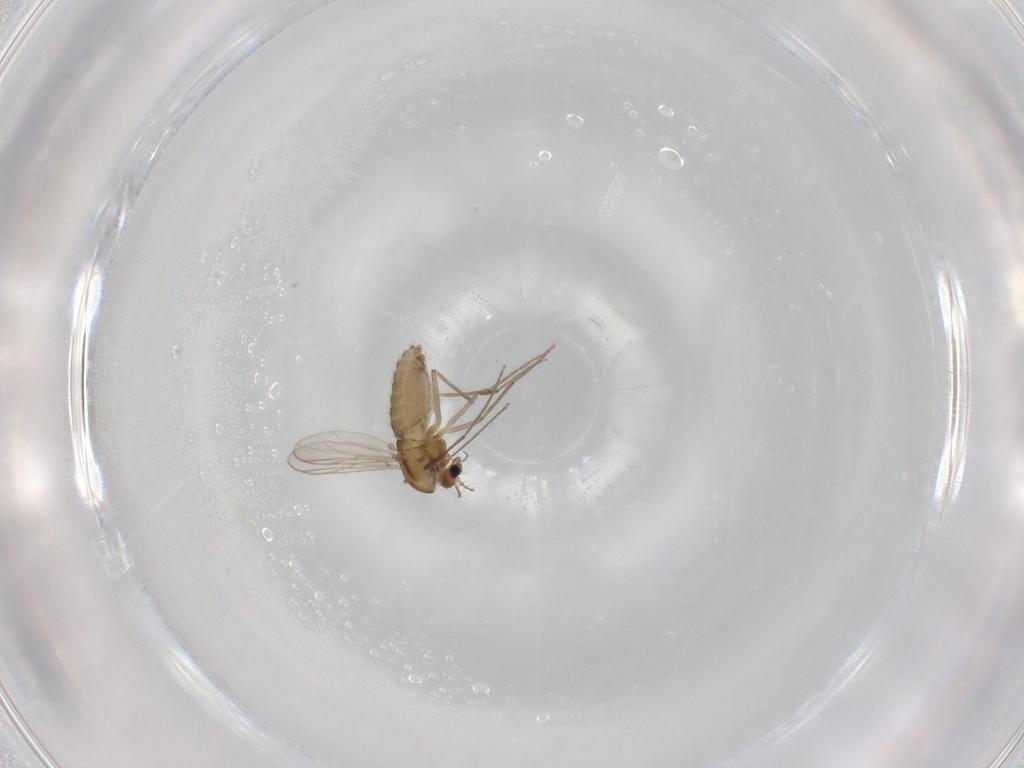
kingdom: Animalia
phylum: Arthropoda
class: Insecta
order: Diptera
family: Chironomidae
